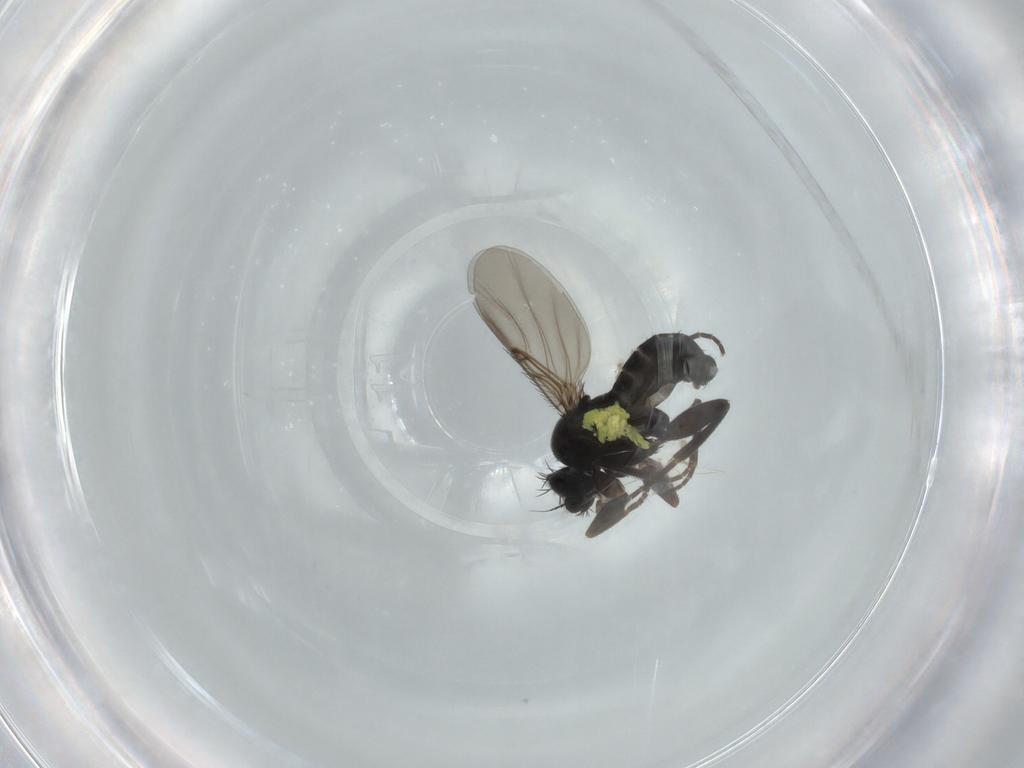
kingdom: Animalia
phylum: Arthropoda
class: Insecta
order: Diptera
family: Phoridae
